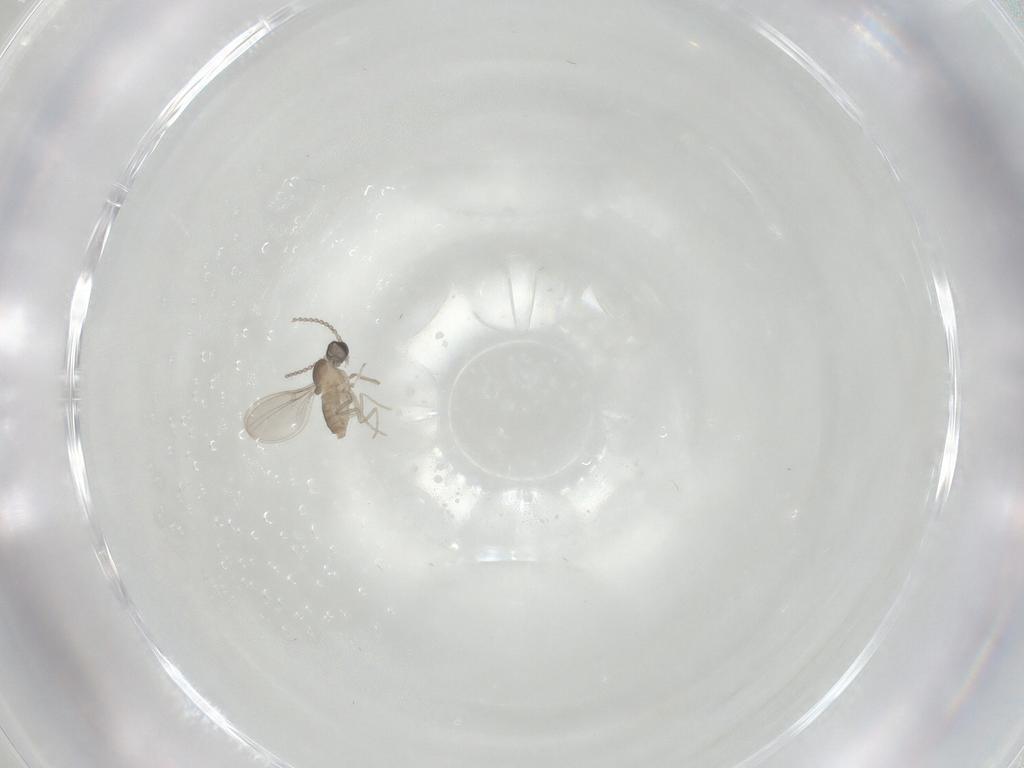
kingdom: Animalia
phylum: Arthropoda
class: Insecta
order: Diptera
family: Cecidomyiidae
